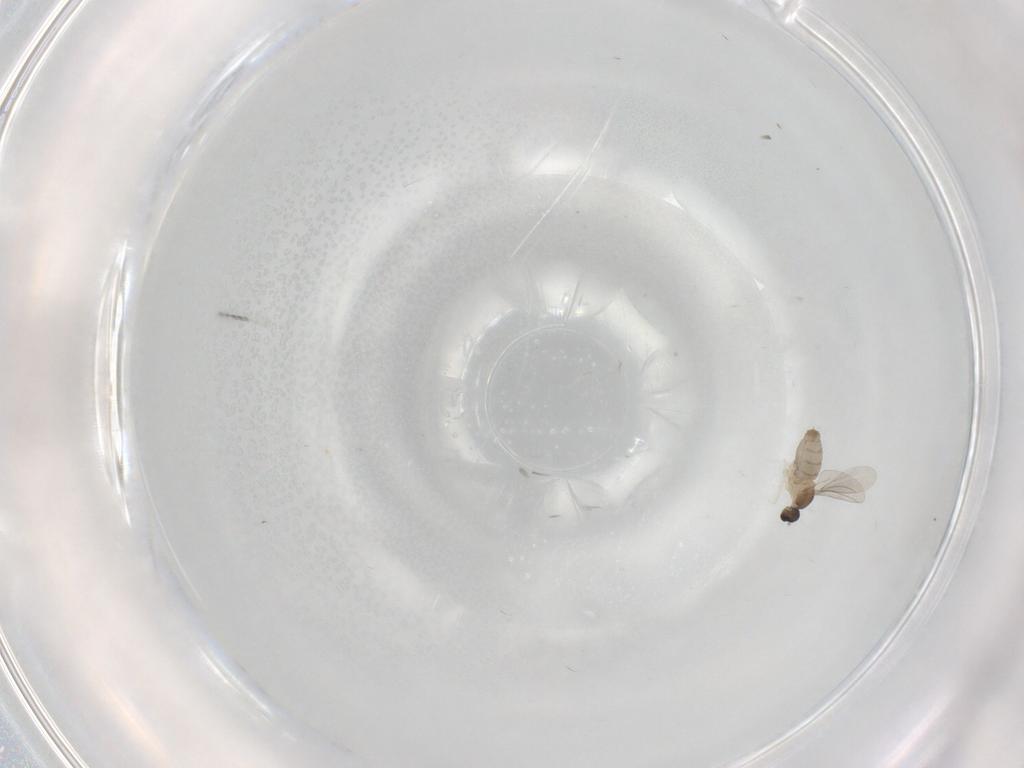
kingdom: Animalia
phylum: Arthropoda
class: Insecta
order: Diptera
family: Cecidomyiidae
